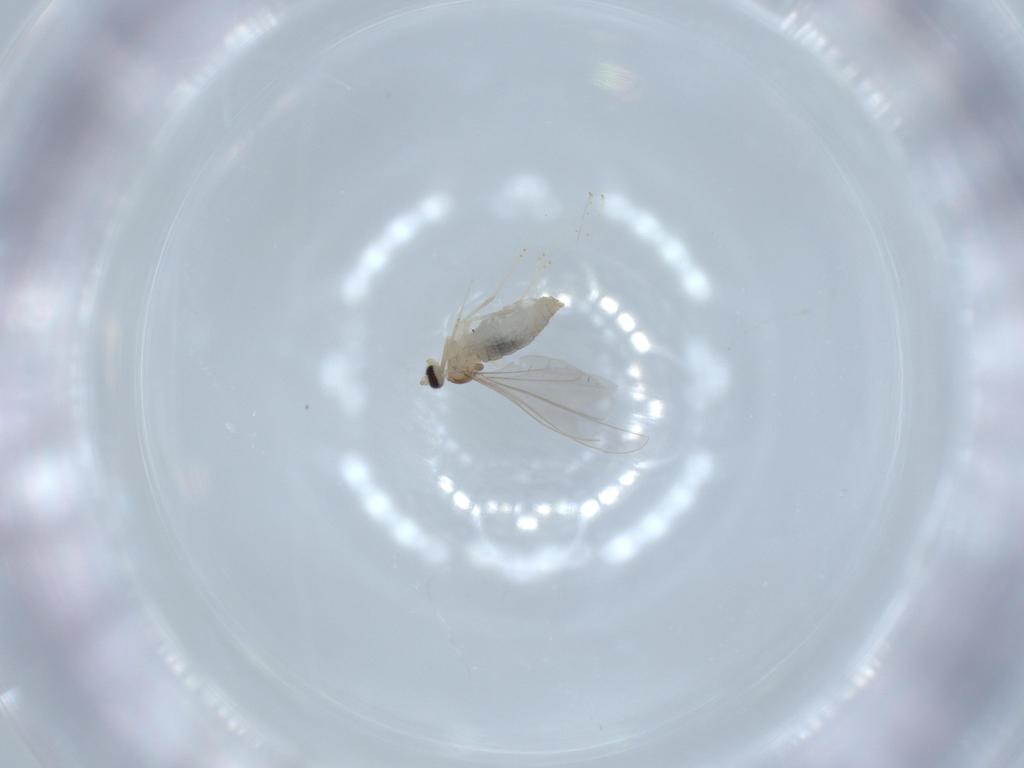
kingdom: Animalia
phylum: Arthropoda
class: Insecta
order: Diptera
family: Cecidomyiidae
